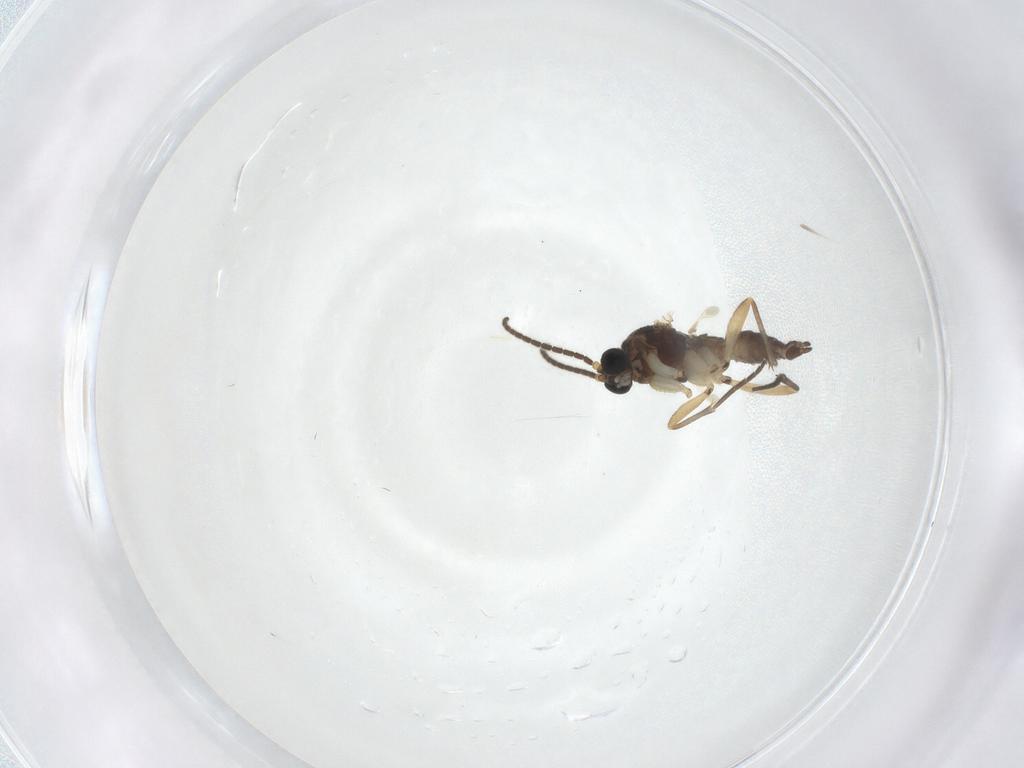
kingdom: Animalia
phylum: Arthropoda
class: Insecta
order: Diptera
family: Sciaridae
